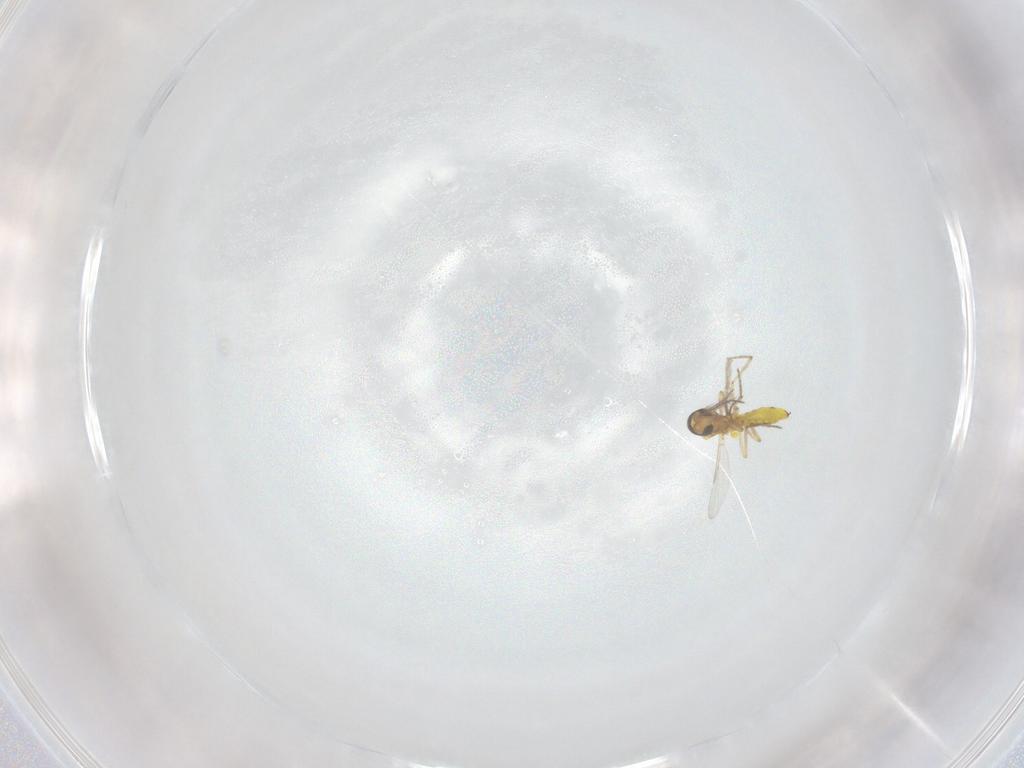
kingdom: Animalia
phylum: Arthropoda
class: Insecta
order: Diptera
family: Ceratopogonidae
